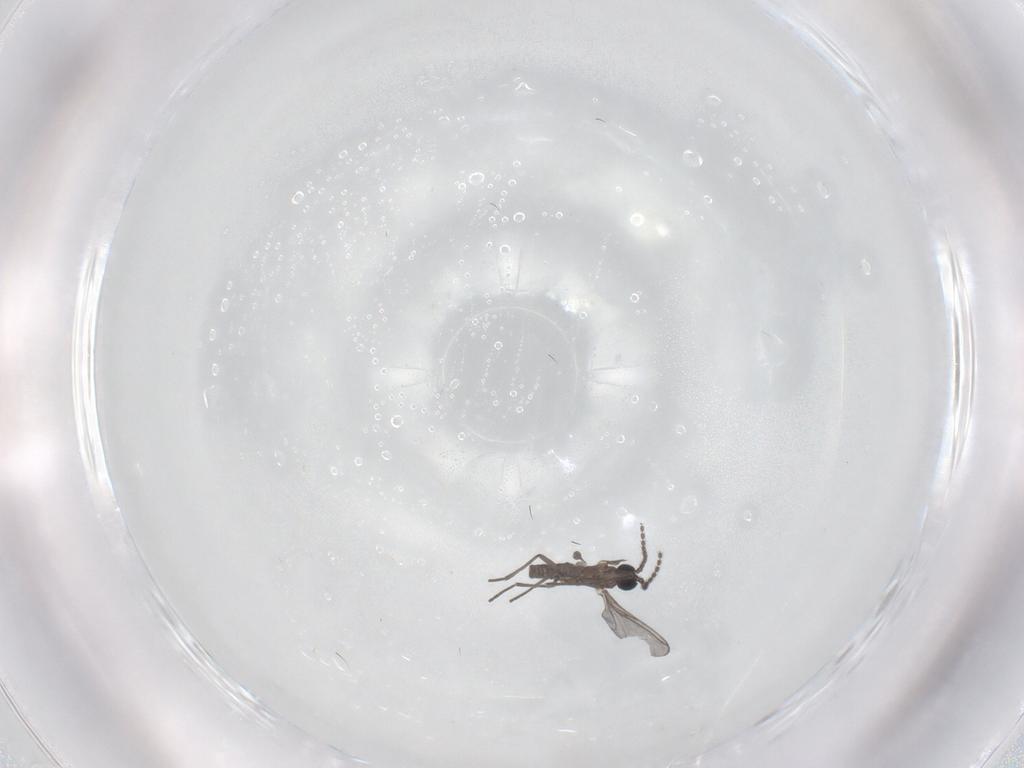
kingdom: Animalia
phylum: Arthropoda
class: Insecta
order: Diptera
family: Sciaridae
